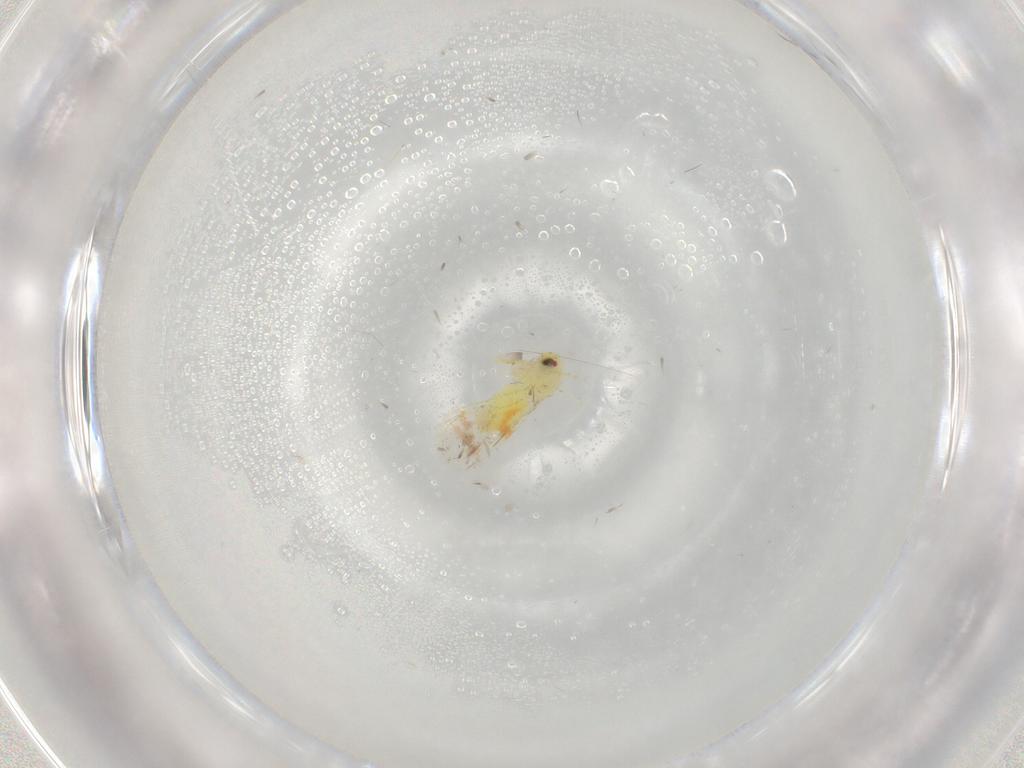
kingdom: Animalia
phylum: Arthropoda
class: Insecta
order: Hemiptera
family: Aleyrodidae
